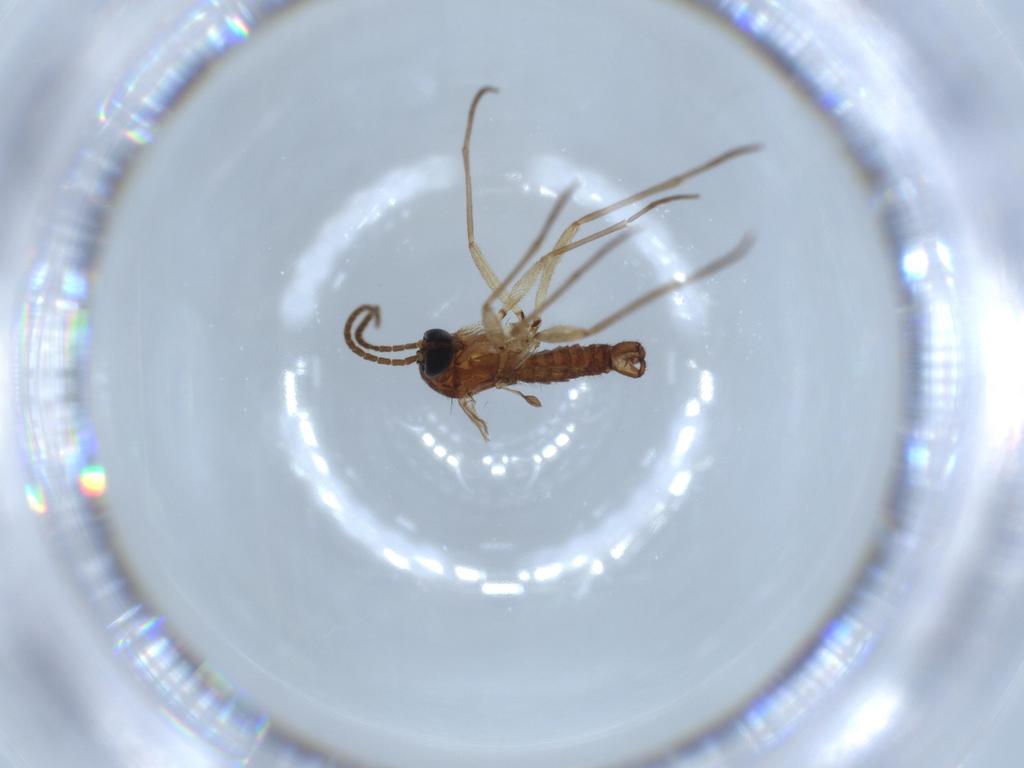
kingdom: Animalia
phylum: Arthropoda
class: Insecta
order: Diptera
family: Sciaridae
